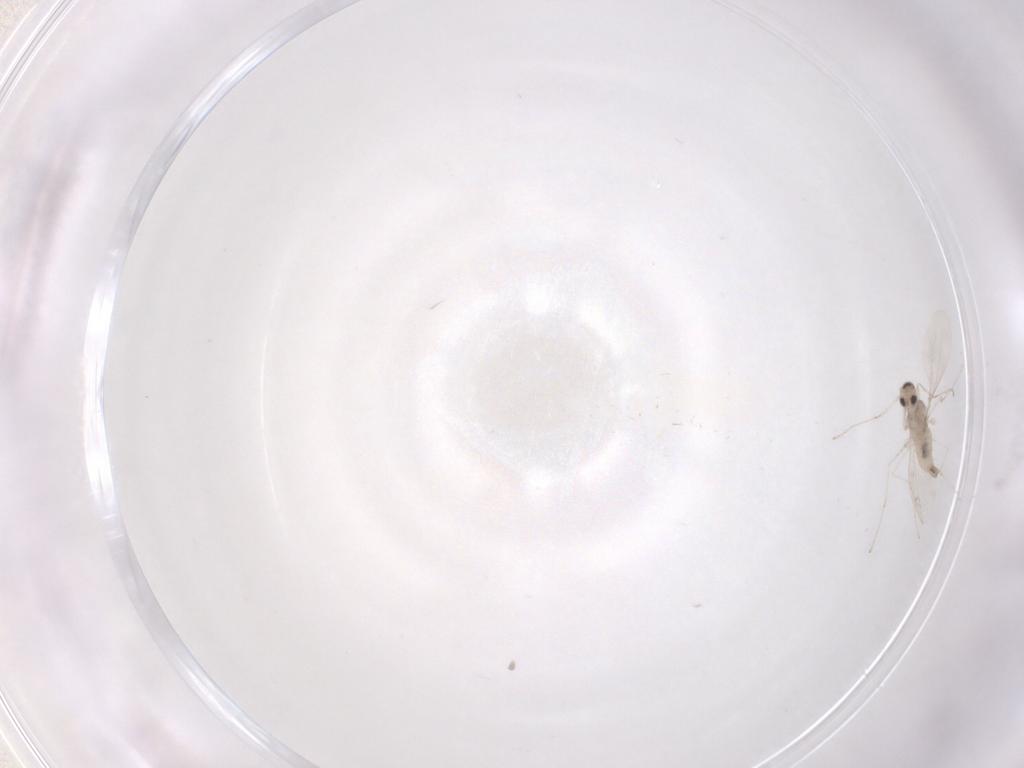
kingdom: Animalia
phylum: Arthropoda
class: Insecta
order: Diptera
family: Cecidomyiidae
